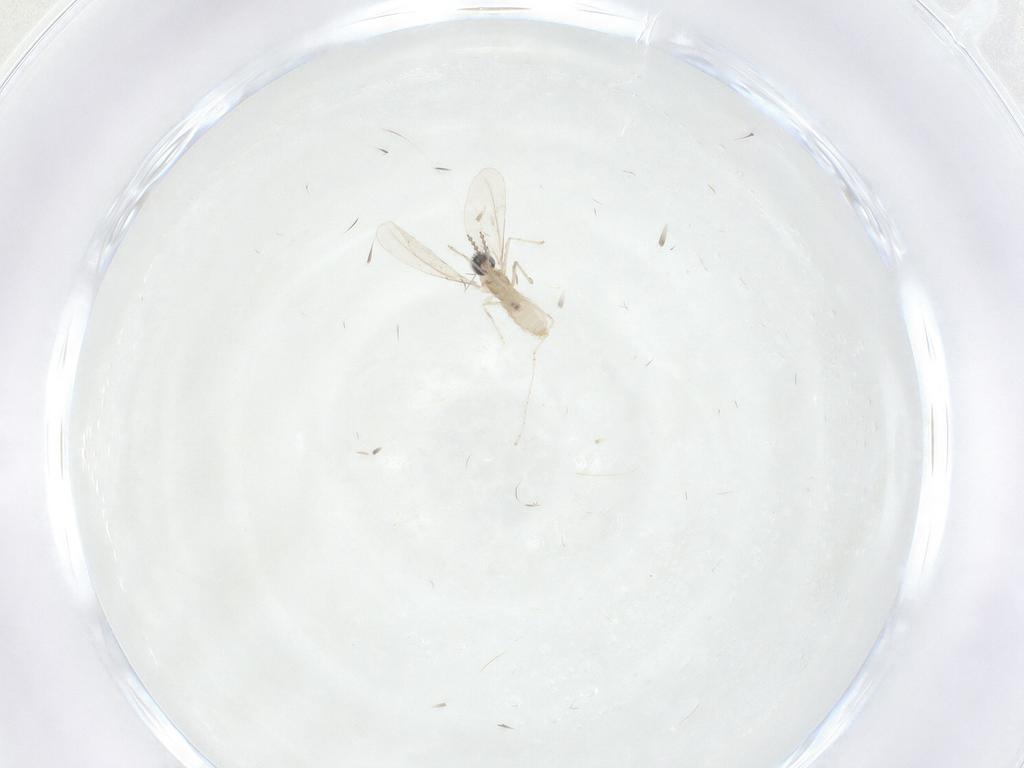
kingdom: Animalia
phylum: Arthropoda
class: Insecta
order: Diptera
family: Cecidomyiidae
